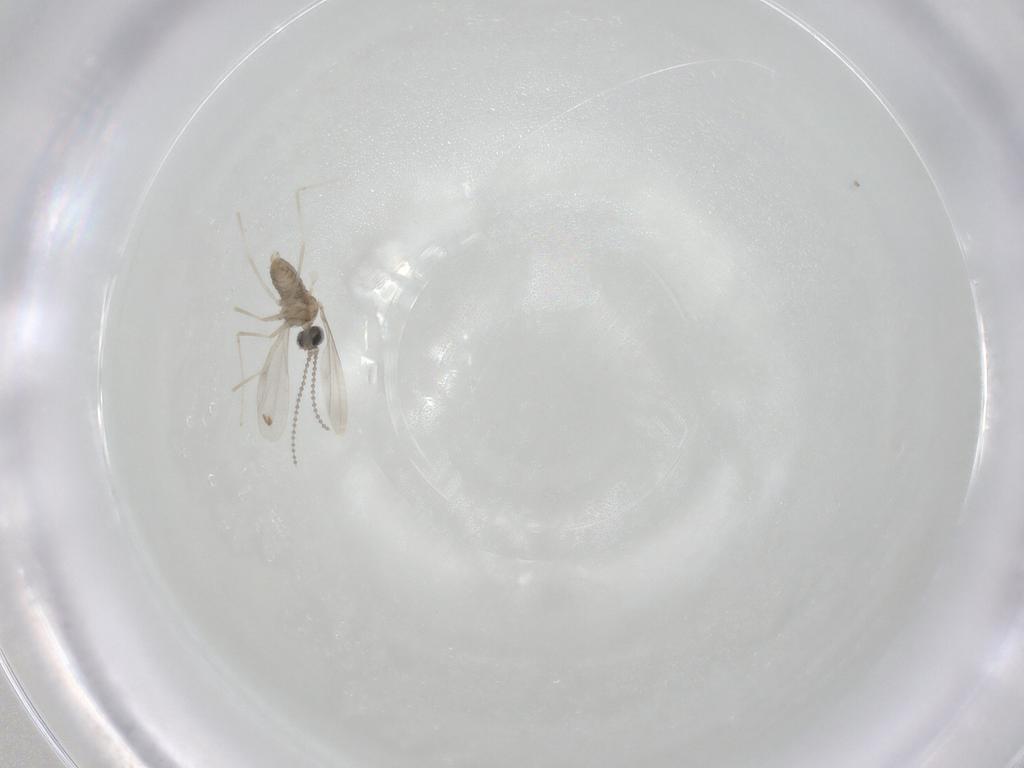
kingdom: Animalia
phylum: Arthropoda
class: Insecta
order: Diptera
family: Cecidomyiidae
